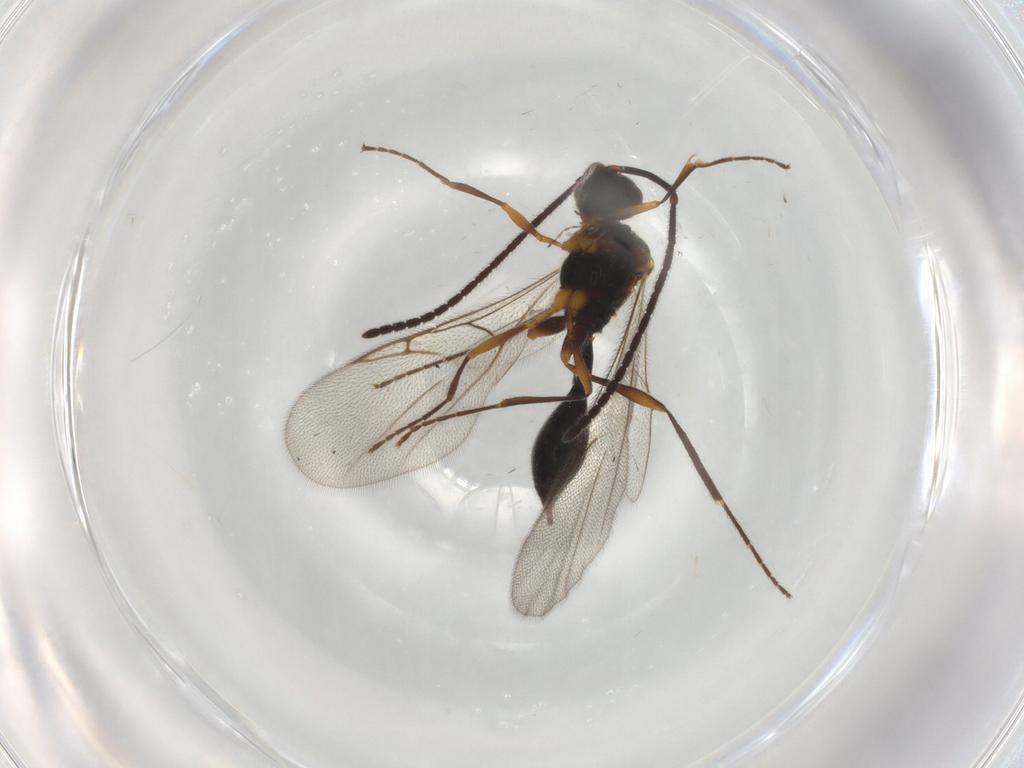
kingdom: Animalia
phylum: Arthropoda
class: Insecta
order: Hymenoptera
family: Diapriidae
